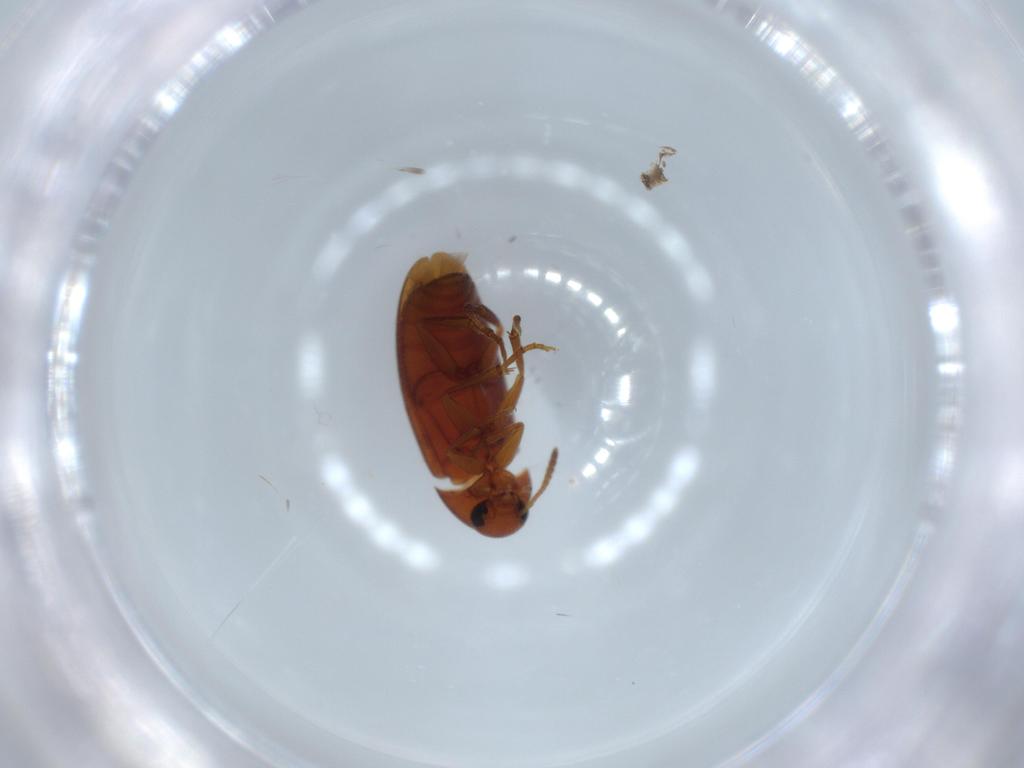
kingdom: Animalia
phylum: Arthropoda
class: Insecta
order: Coleoptera
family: Scraptiidae
